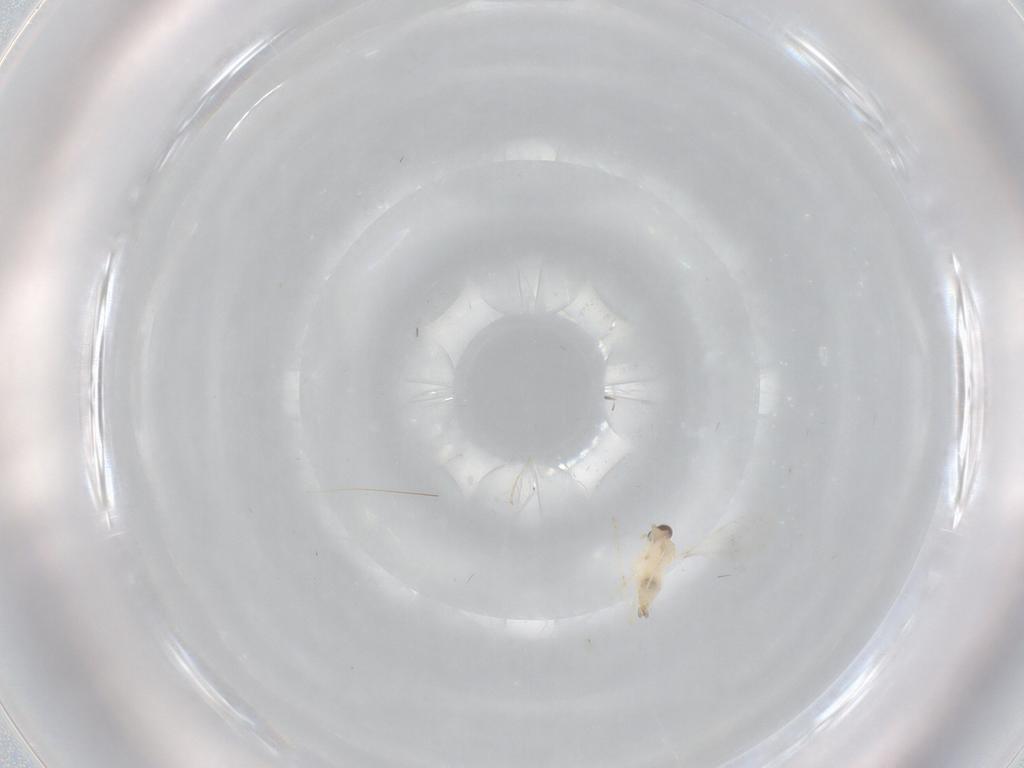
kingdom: Animalia
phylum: Arthropoda
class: Insecta
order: Diptera
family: Cecidomyiidae
